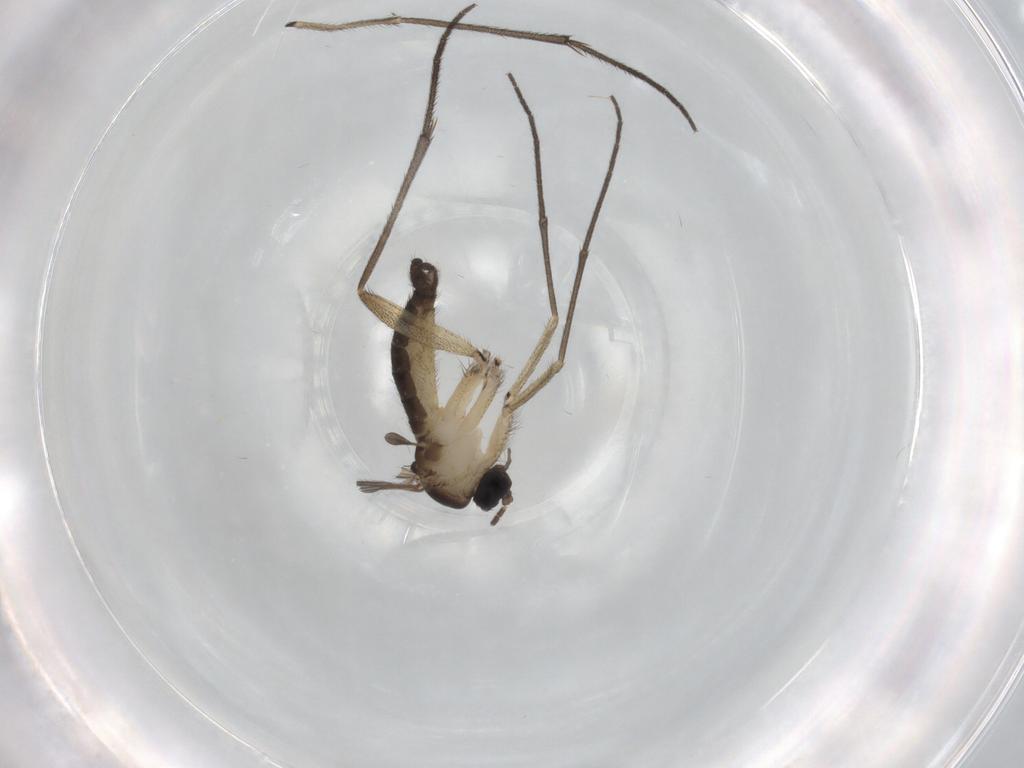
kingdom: Animalia
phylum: Arthropoda
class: Insecta
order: Diptera
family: Sciaridae
